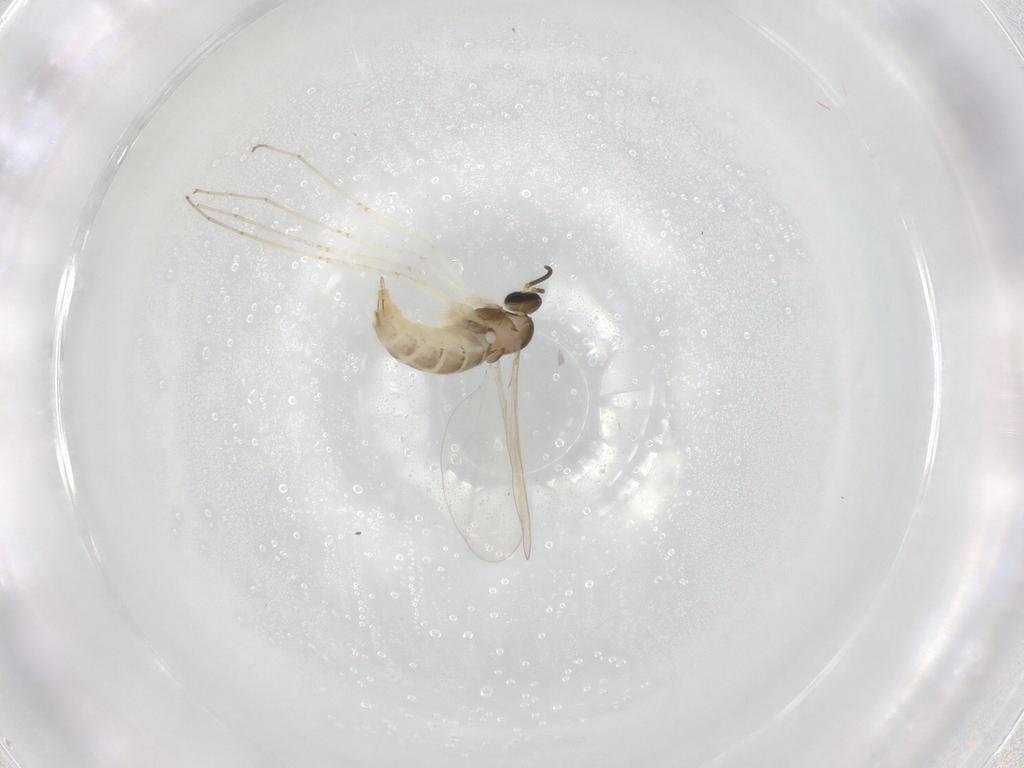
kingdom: Animalia
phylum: Arthropoda
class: Insecta
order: Diptera
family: Cecidomyiidae
